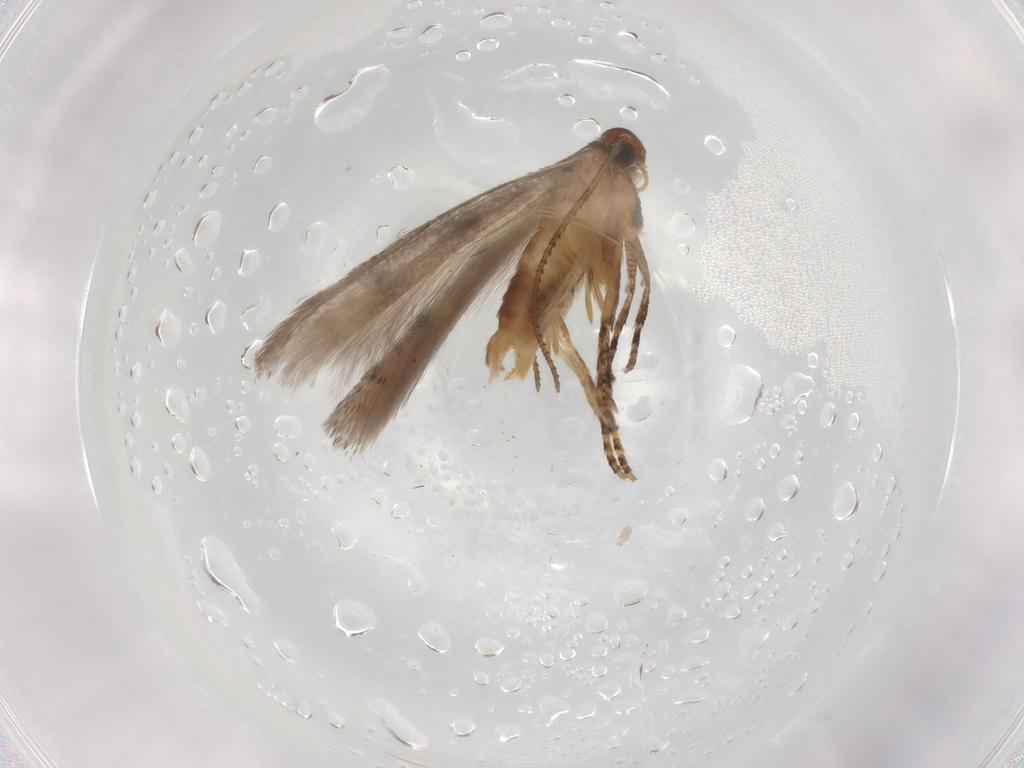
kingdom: Animalia
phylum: Arthropoda
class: Insecta
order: Lepidoptera
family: Gelechiidae
